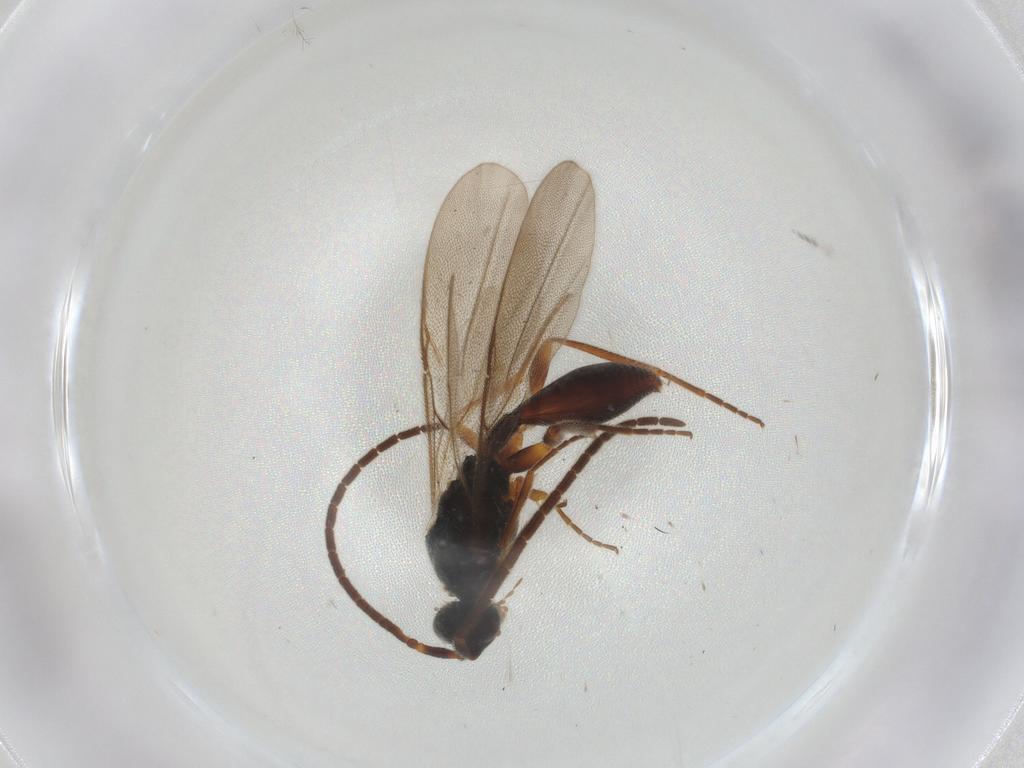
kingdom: Animalia
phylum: Arthropoda
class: Insecta
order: Hymenoptera
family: Diapriidae
